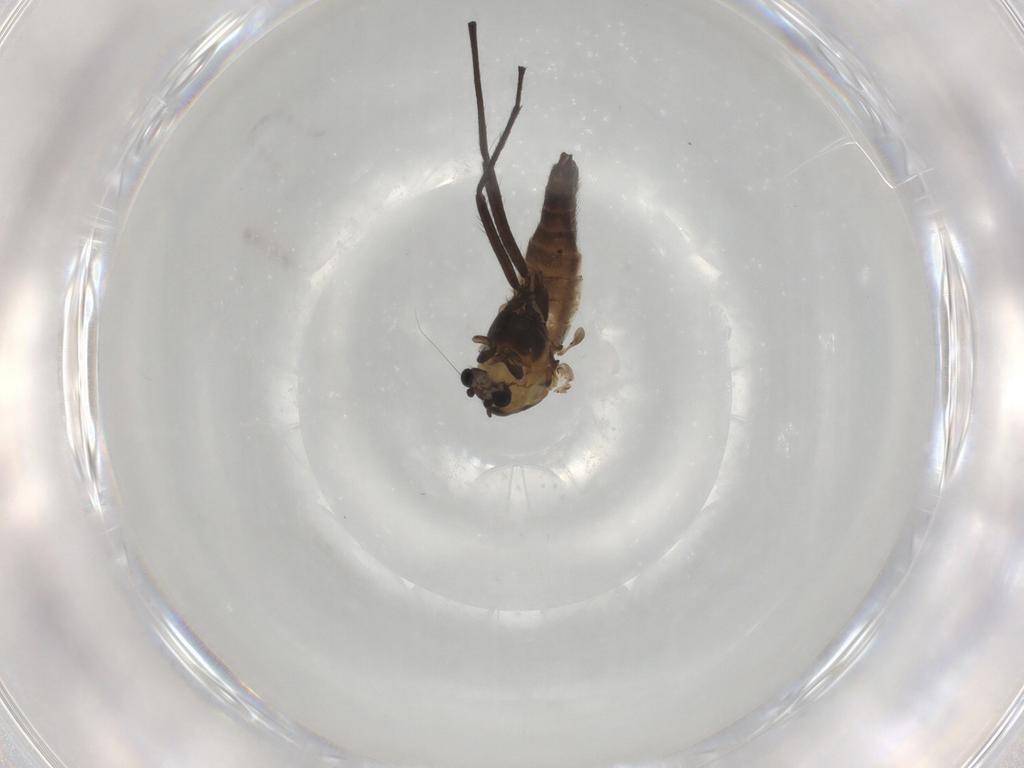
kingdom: Animalia
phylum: Arthropoda
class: Insecta
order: Diptera
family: Chironomidae
